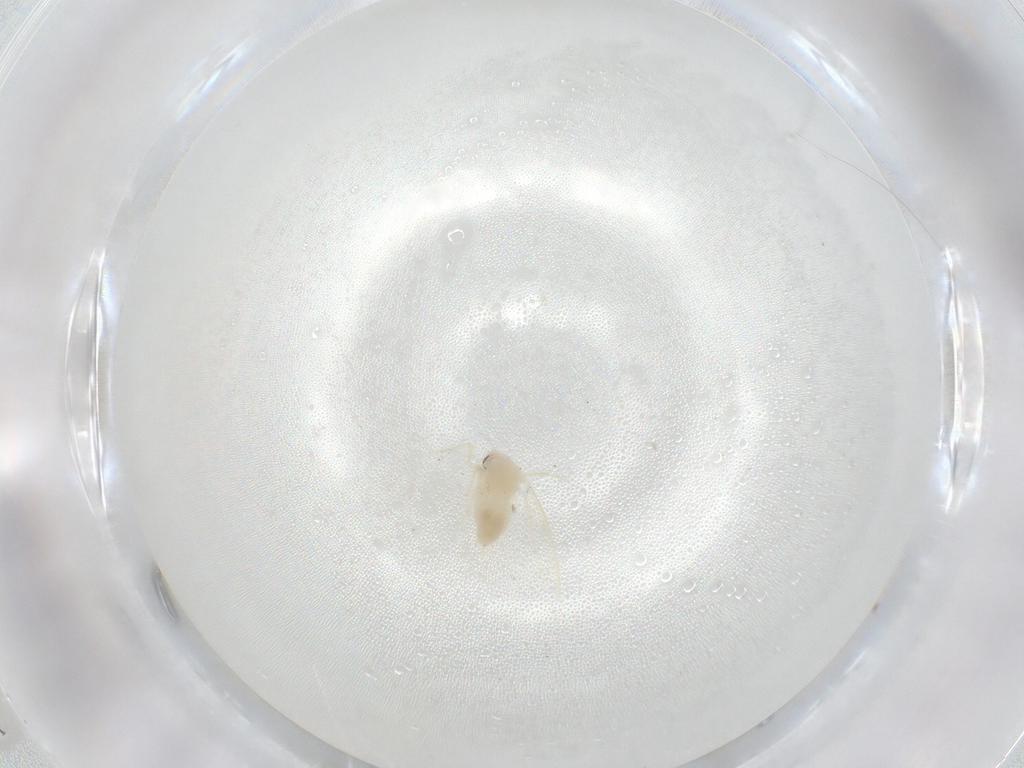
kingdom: Animalia
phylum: Arthropoda
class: Insecta
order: Hemiptera
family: Aleyrodidae
